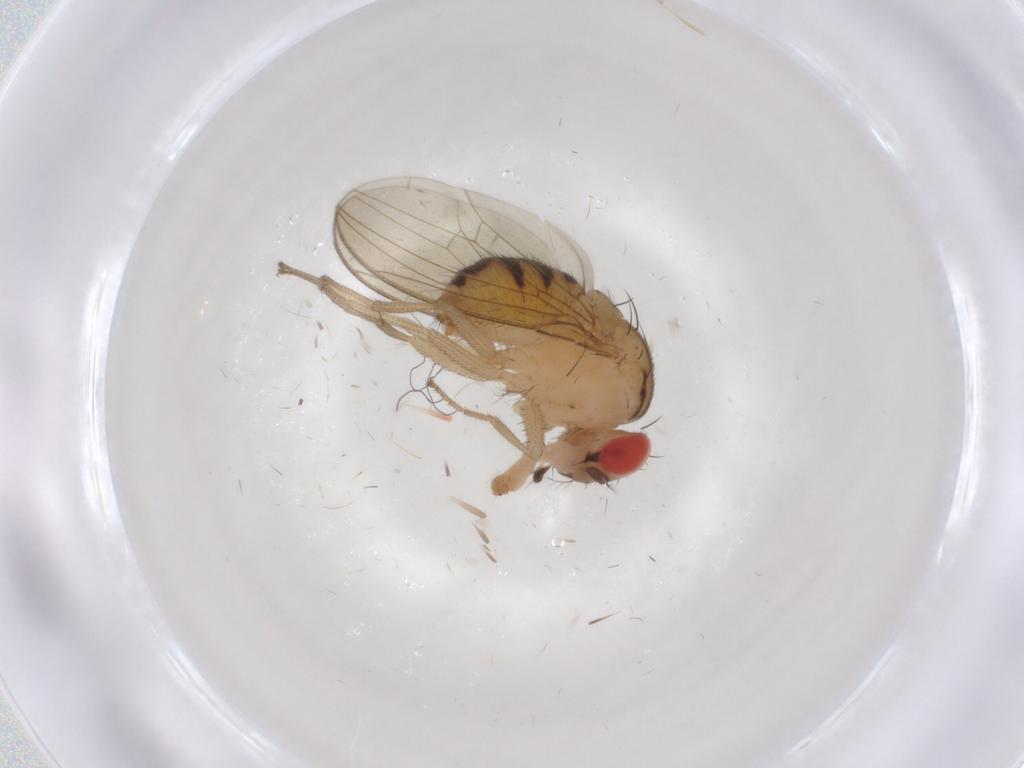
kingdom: Animalia
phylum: Arthropoda
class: Insecta
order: Diptera
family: Drosophilidae
